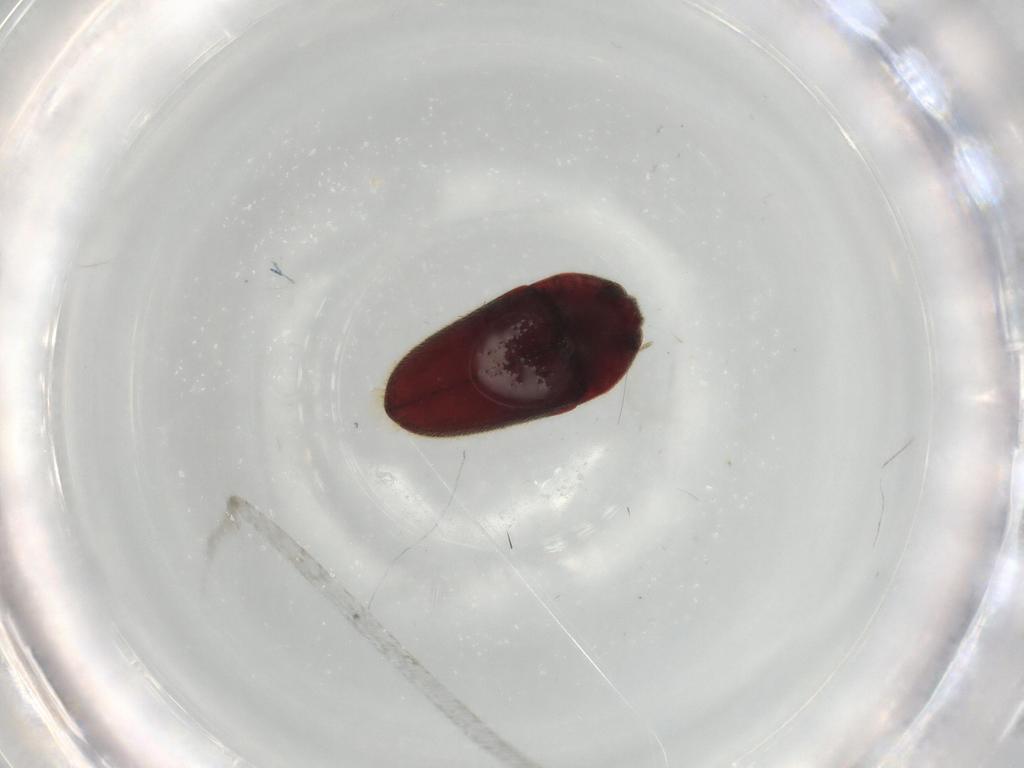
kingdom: Animalia
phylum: Arthropoda
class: Insecta
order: Coleoptera
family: Throscidae
